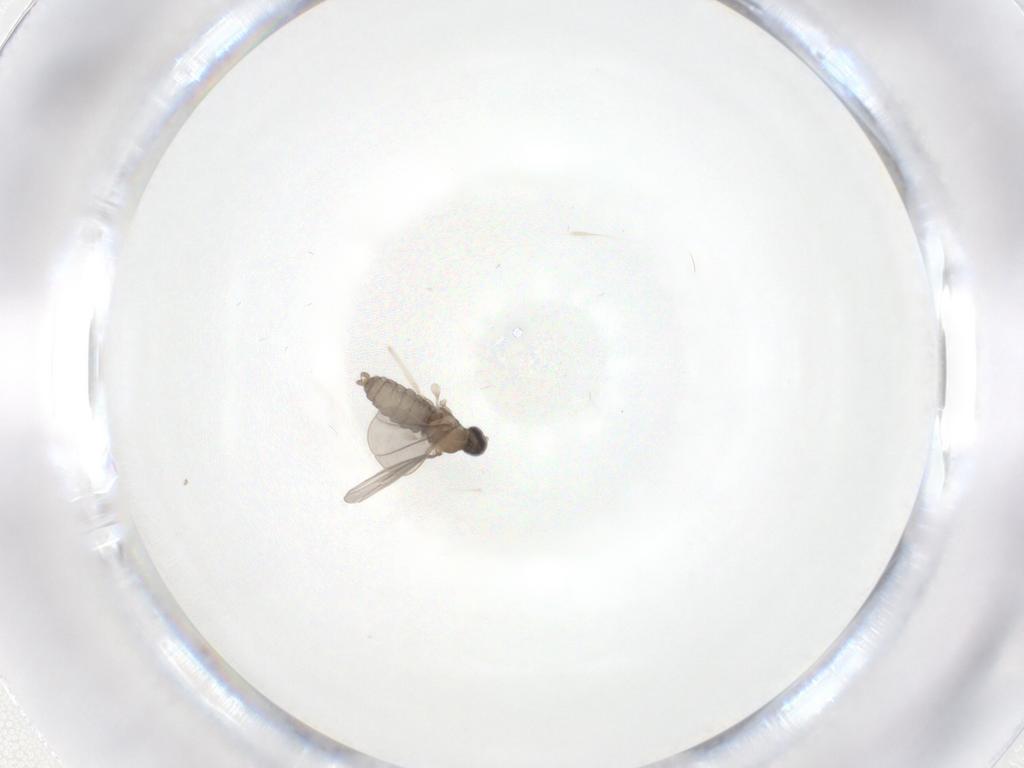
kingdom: Animalia
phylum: Arthropoda
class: Insecta
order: Diptera
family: Cecidomyiidae
